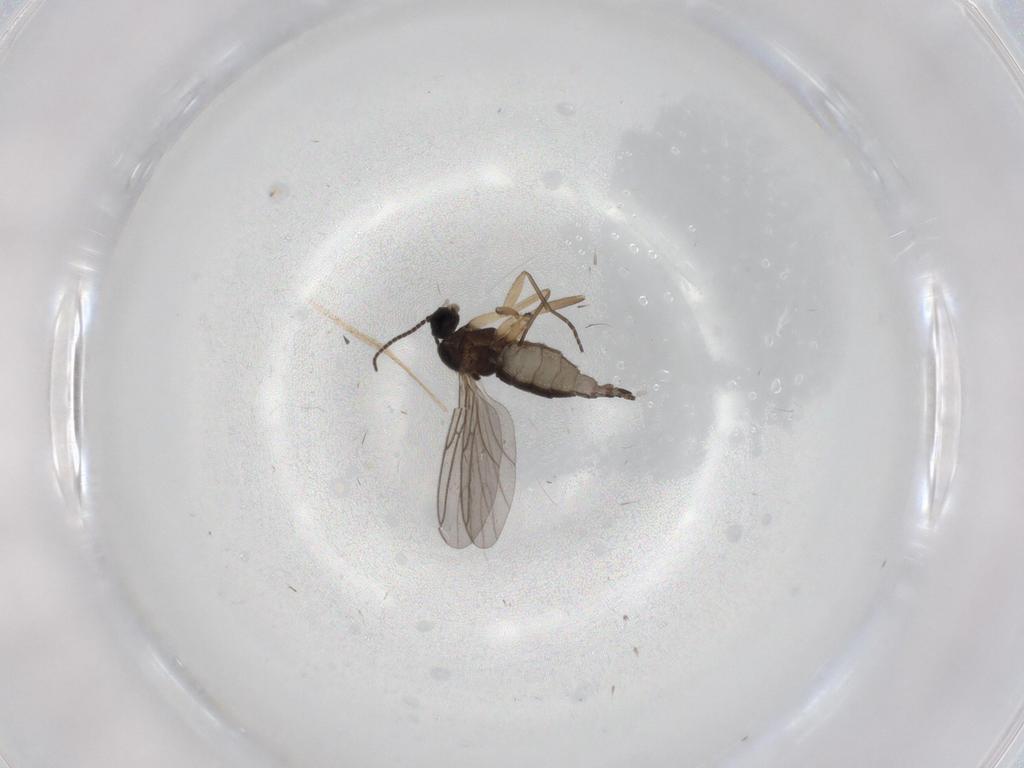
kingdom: Animalia
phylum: Arthropoda
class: Insecta
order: Diptera
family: Sciaridae
